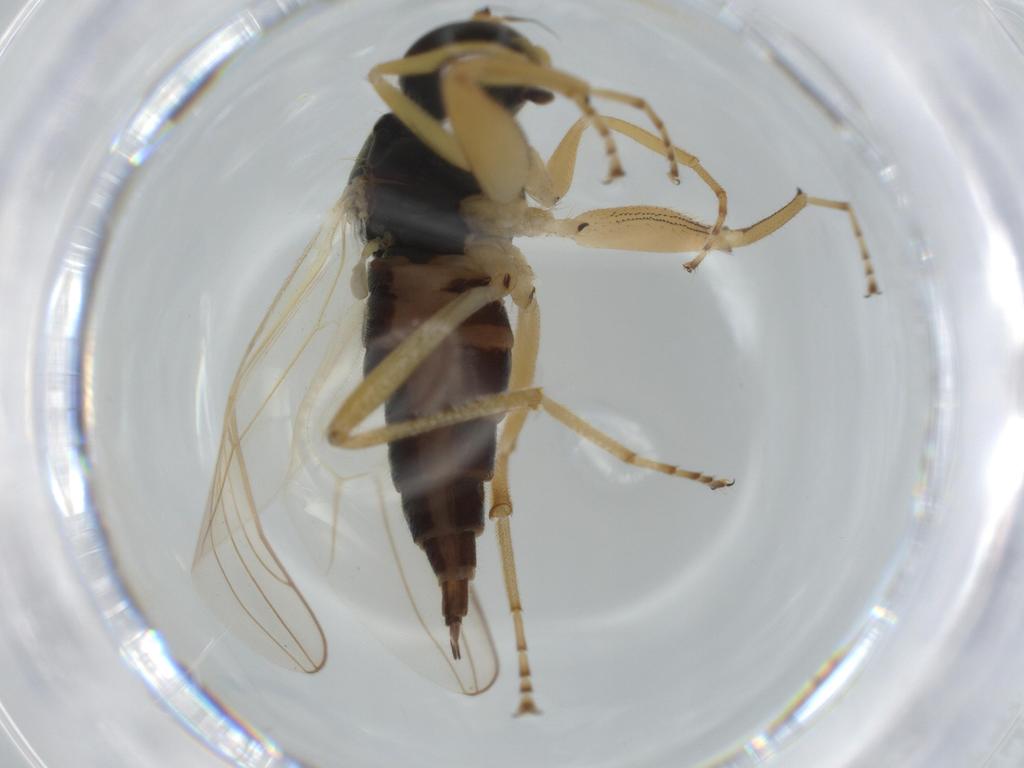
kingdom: Animalia
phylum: Arthropoda
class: Insecta
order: Diptera
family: Hybotidae
